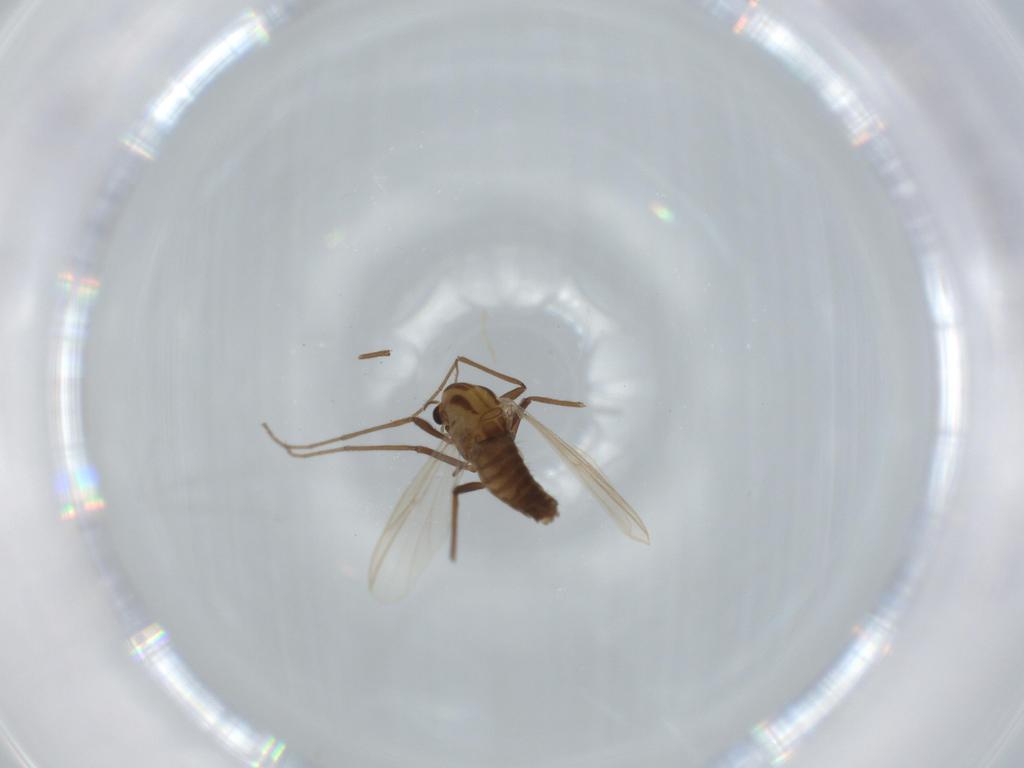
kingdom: Animalia
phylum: Arthropoda
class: Insecta
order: Diptera
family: Chironomidae
